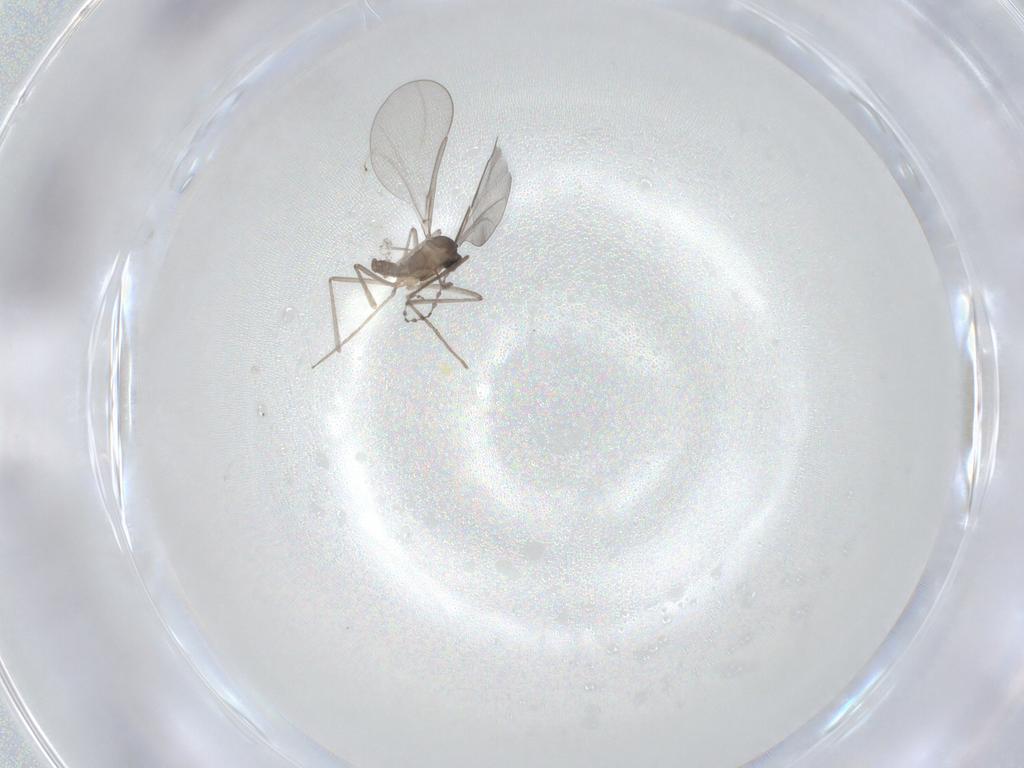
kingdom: Animalia
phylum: Arthropoda
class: Insecta
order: Diptera
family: Cecidomyiidae
